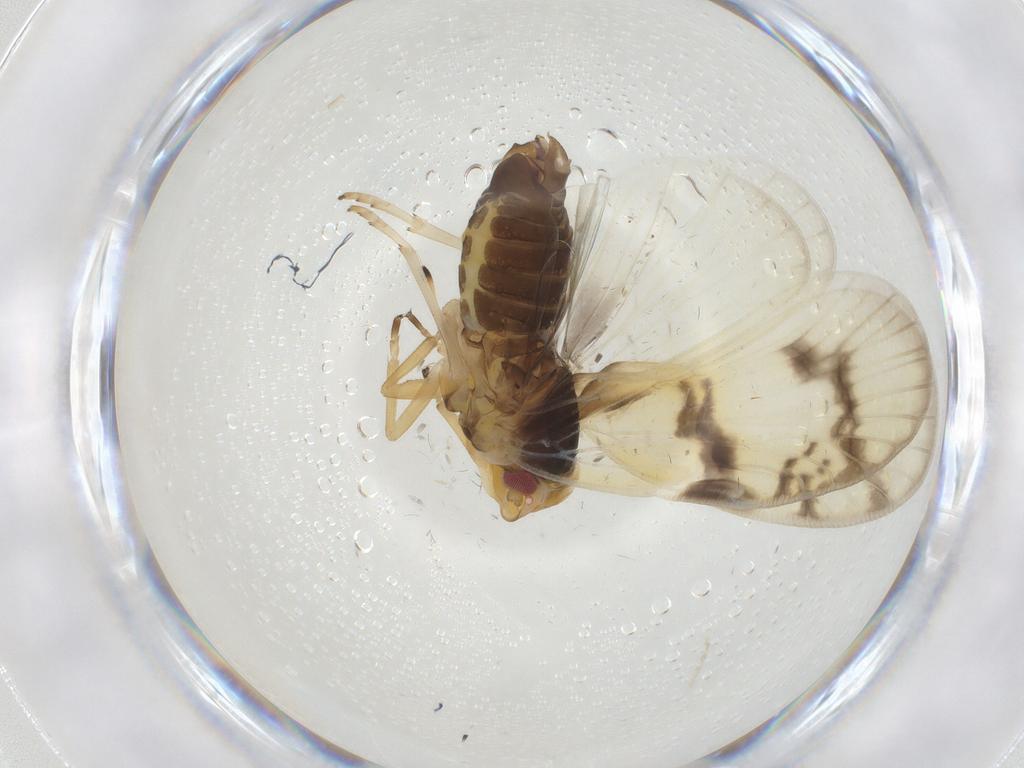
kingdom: Animalia
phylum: Arthropoda
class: Insecta
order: Hemiptera
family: Cixiidae
